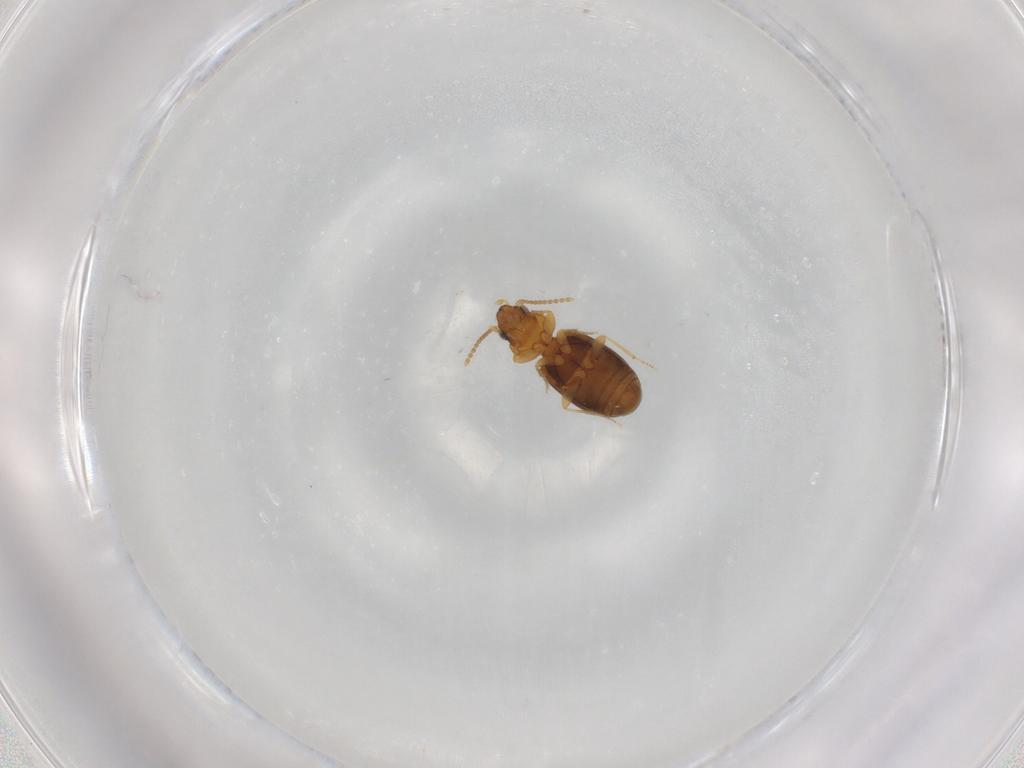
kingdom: Animalia
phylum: Arthropoda
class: Insecta
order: Coleoptera
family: Carabidae
